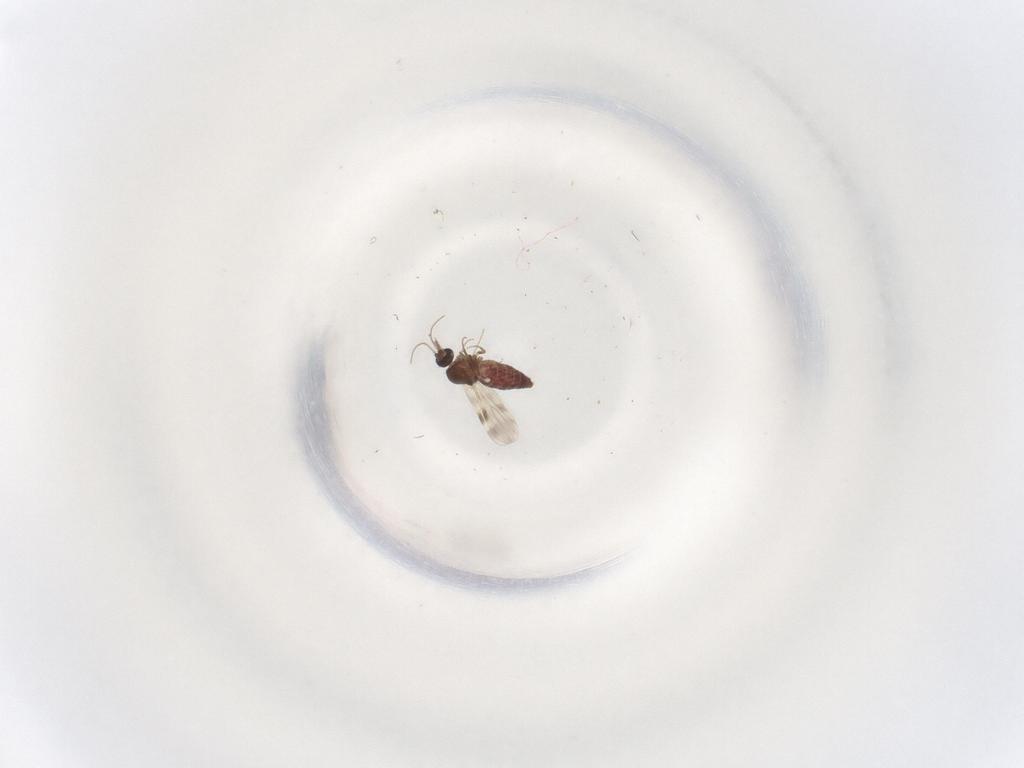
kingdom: Animalia
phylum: Arthropoda
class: Insecta
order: Diptera
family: Ceratopogonidae
